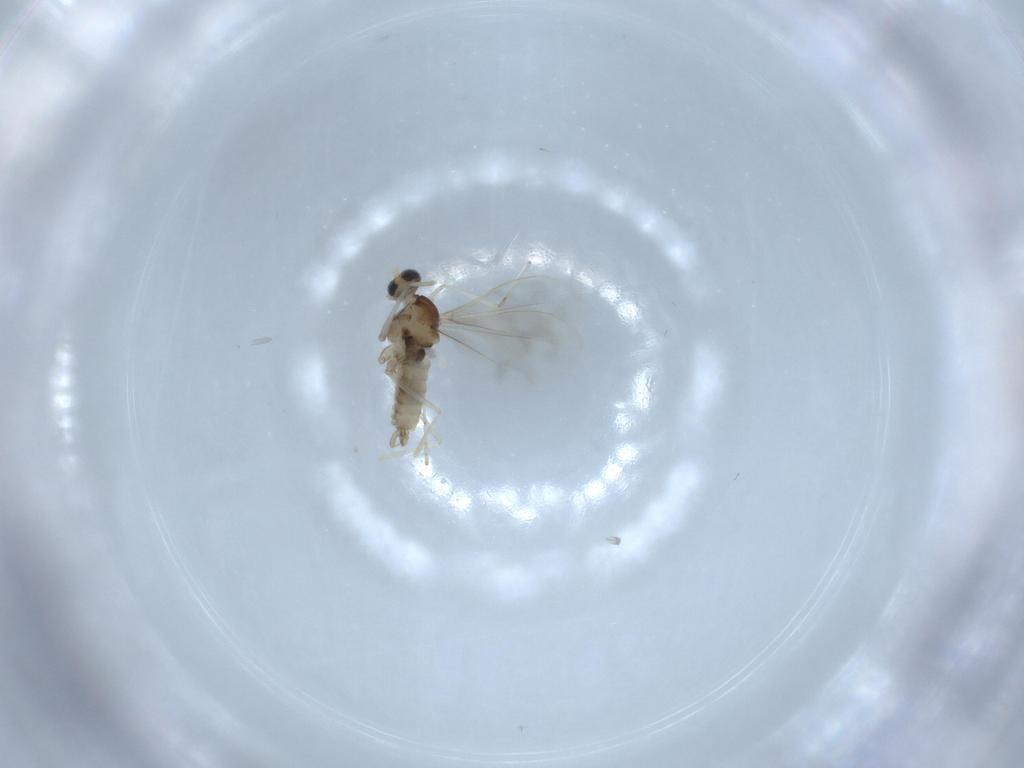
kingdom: Animalia
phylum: Arthropoda
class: Insecta
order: Diptera
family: Cecidomyiidae
